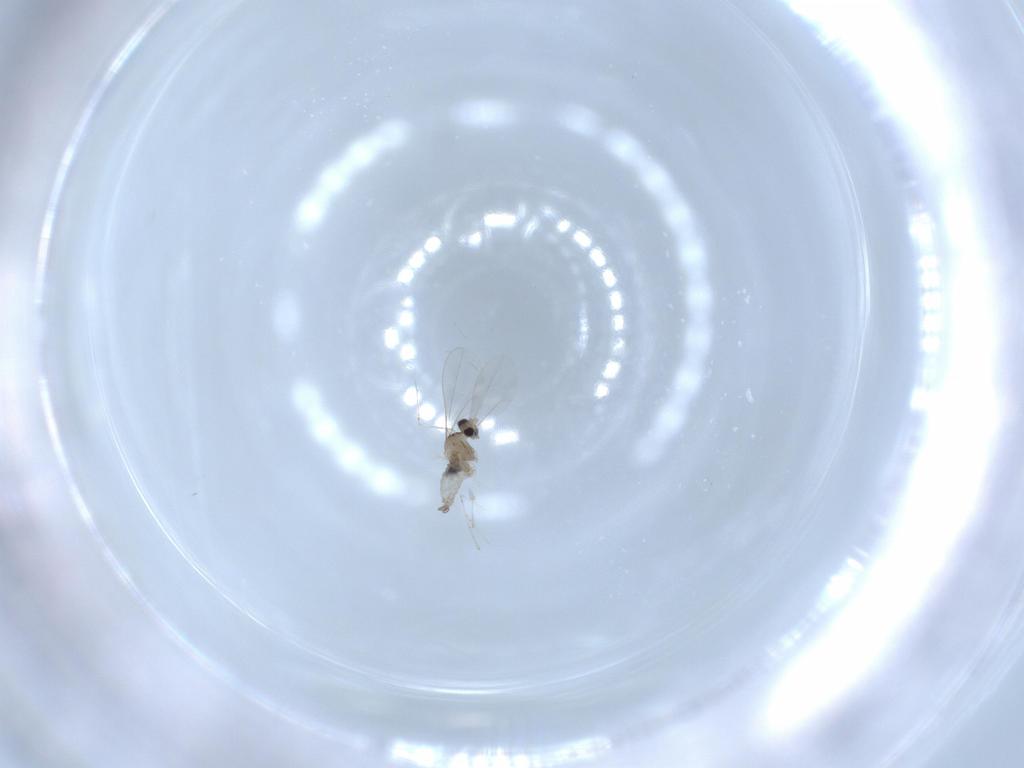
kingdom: Animalia
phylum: Arthropoda
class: Insecta
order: Diptera
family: Cecidomyiidae
